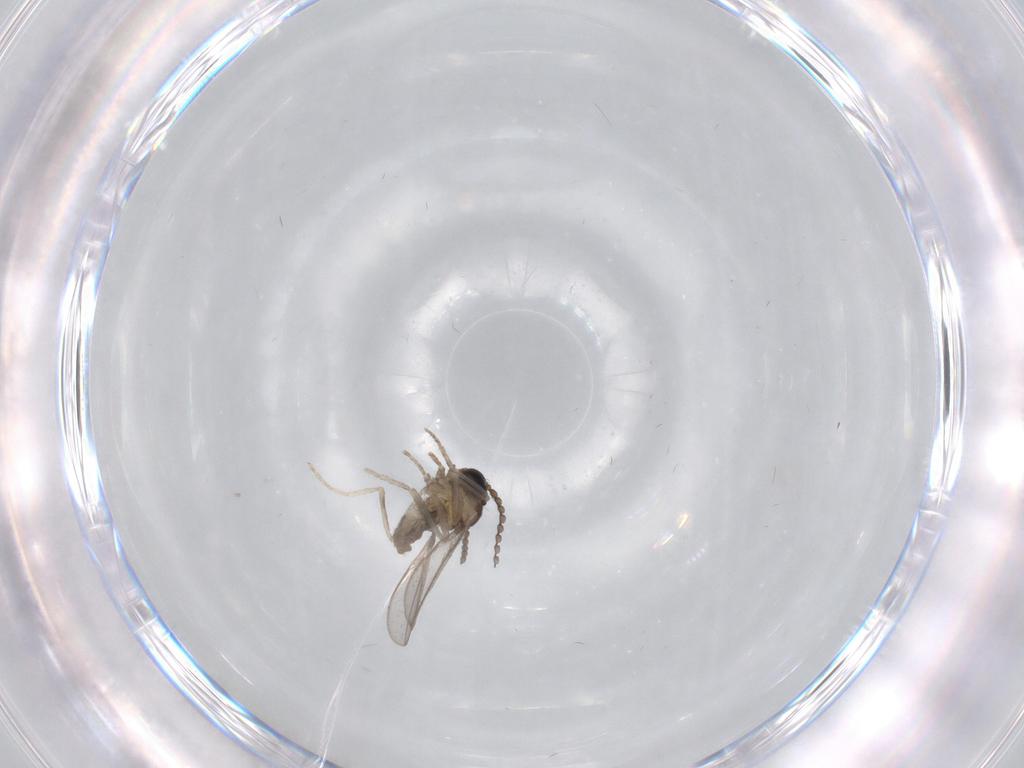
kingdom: Animalia
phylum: Arthropoda
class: Insecta
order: Diptera
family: Cecidomyiidae
